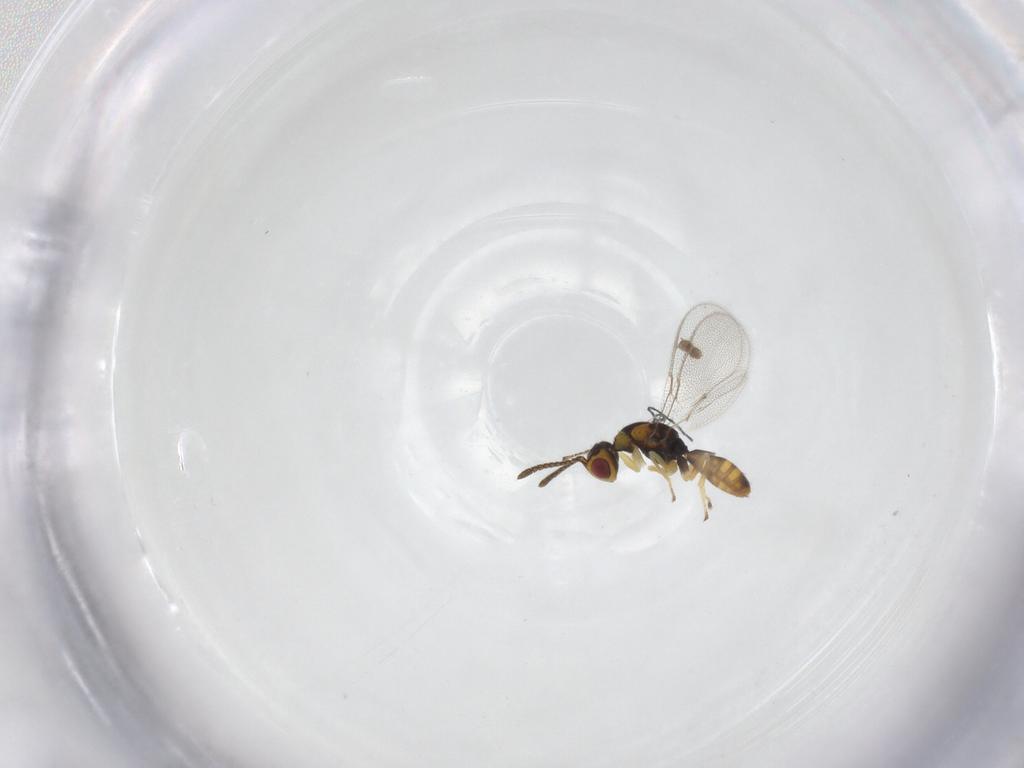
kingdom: Animalia
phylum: Arthropoda
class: Insecta
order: Hymenoptera
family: Megastigmidae
